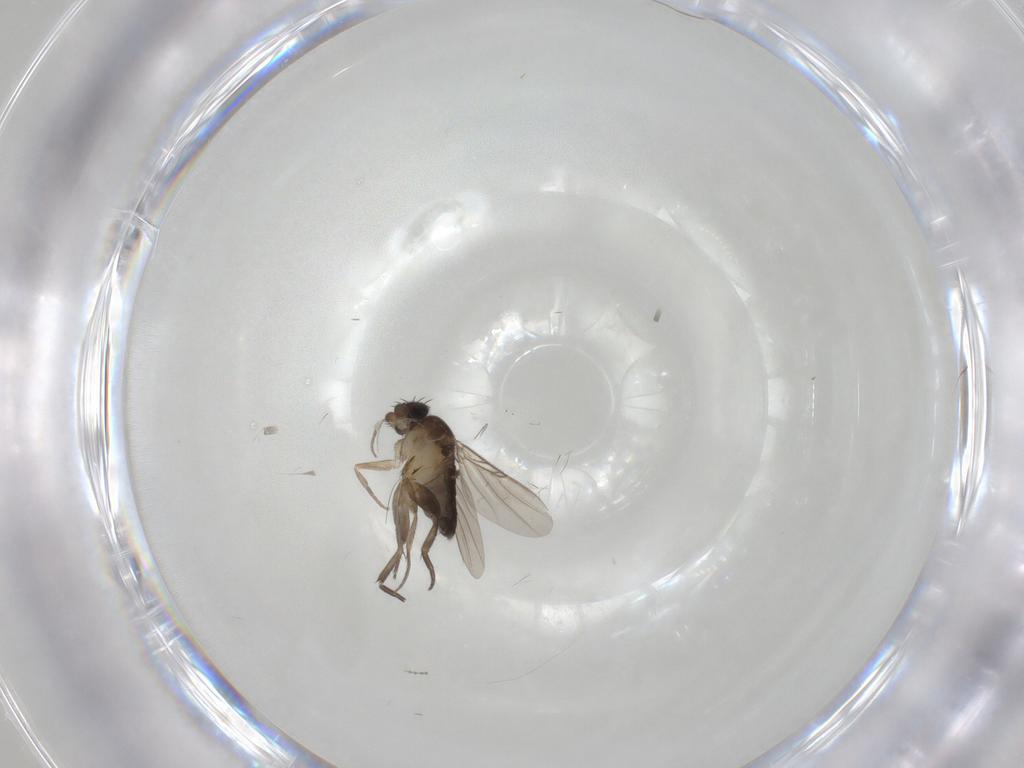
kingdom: Animalia
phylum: Arthropoda
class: Insecta
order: Diptera
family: Phoridae
